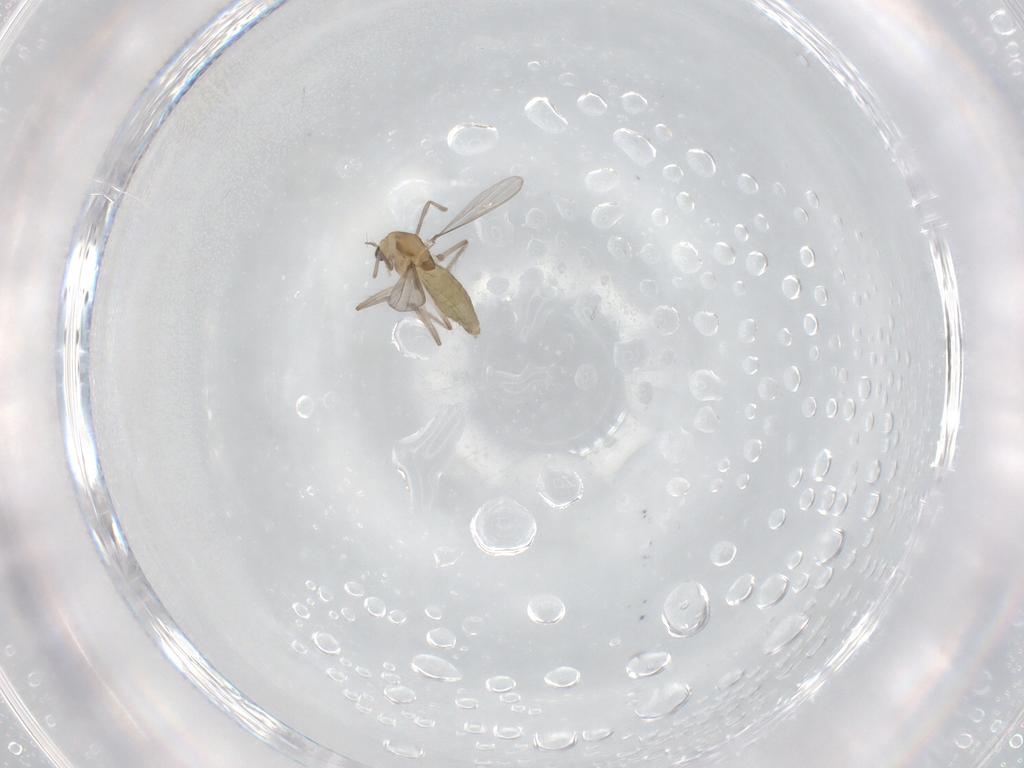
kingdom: Animalia
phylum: Arthropoda
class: Insecta
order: Diptera
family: Chironomidae
